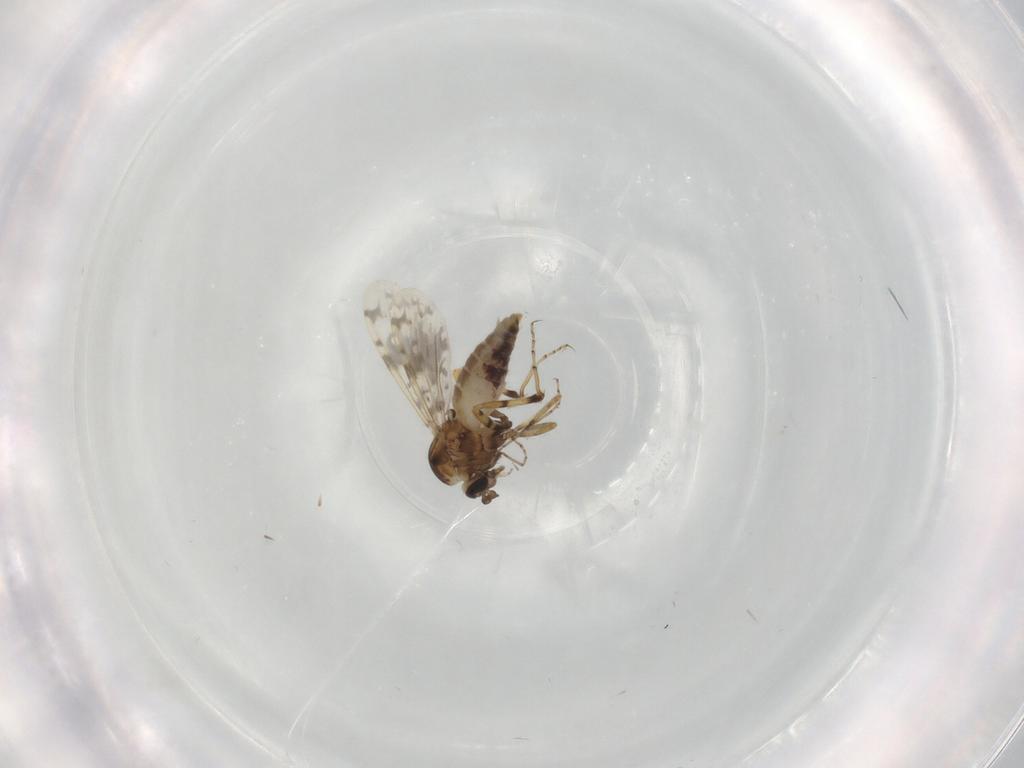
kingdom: Animalia
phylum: Arthropoda
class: Insecta
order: Diptera
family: Ceratopogonidae
